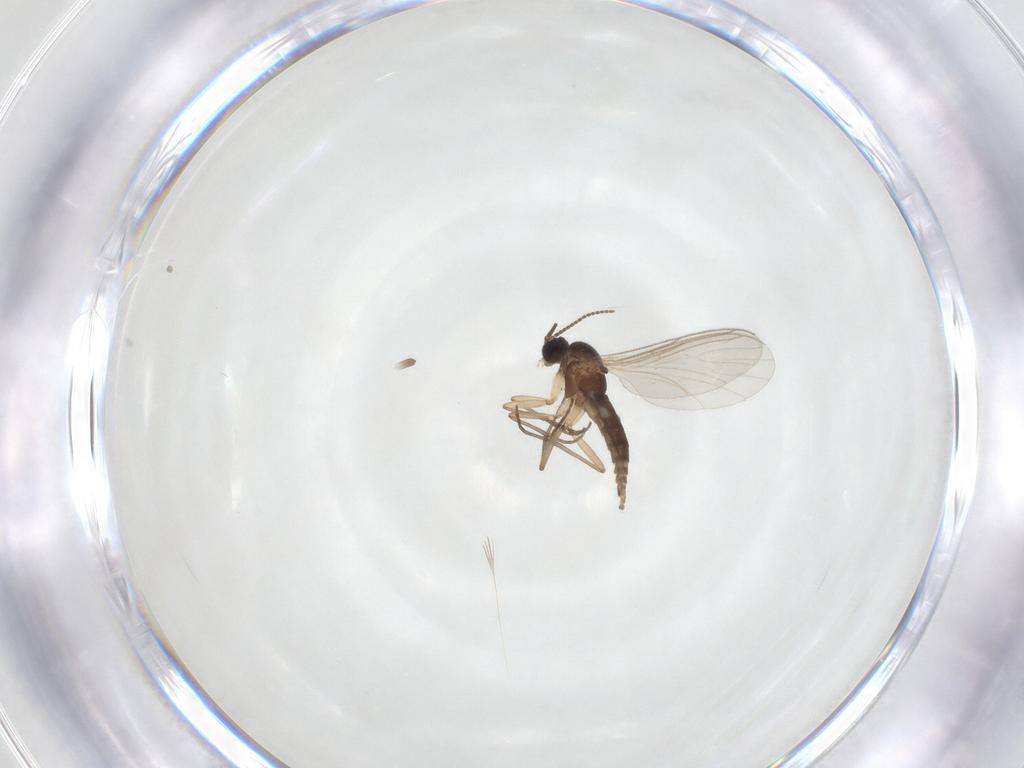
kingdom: Animalia
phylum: Arthropoda
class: Insecta
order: Diptera
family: Sciaridae
